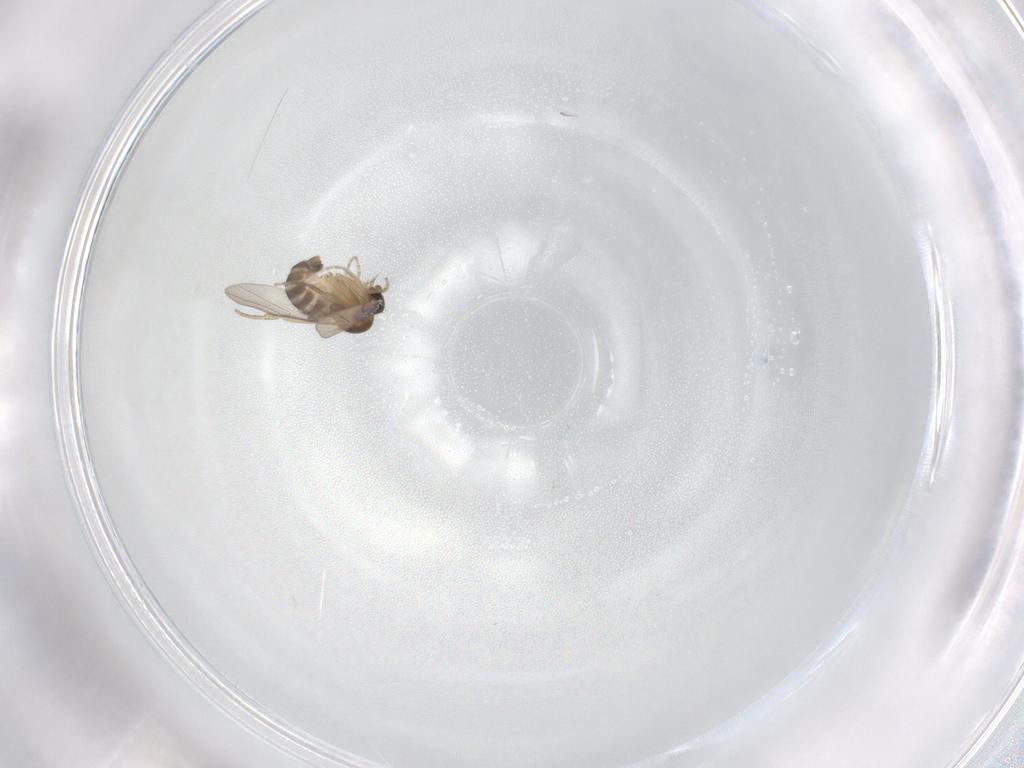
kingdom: Animalia
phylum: Arthropoda
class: Insecta
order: Diptera
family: Phoridae
